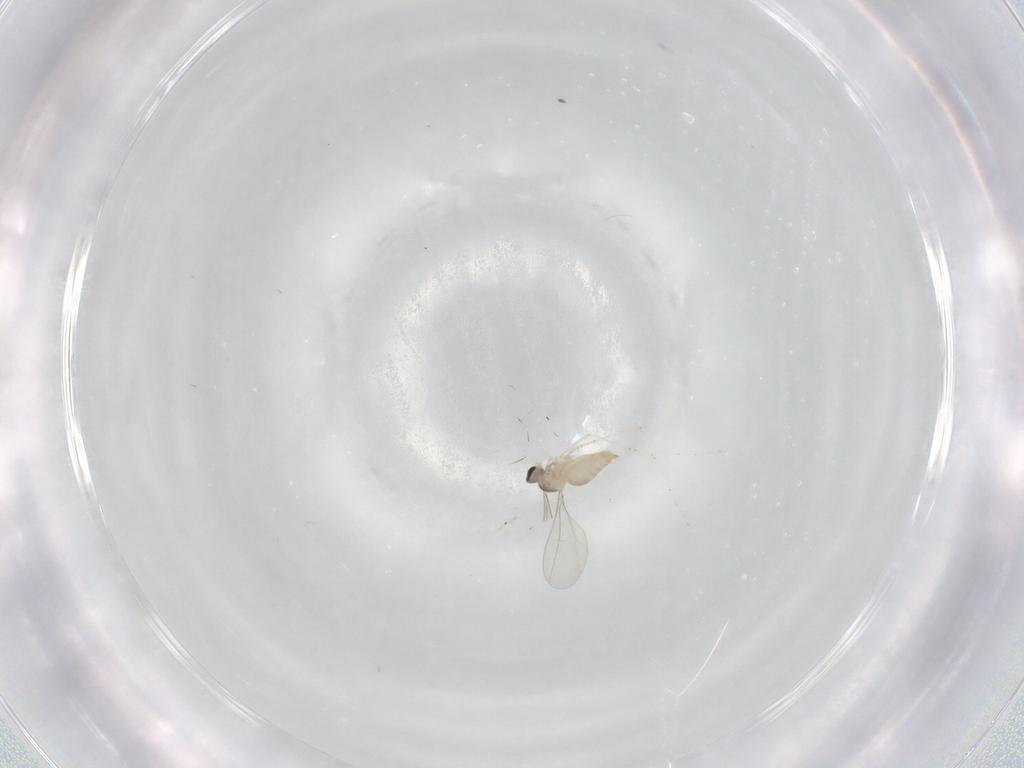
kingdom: Animalia
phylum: Arthropoda
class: Insecta
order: Diptera
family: Cecidomyiidae
